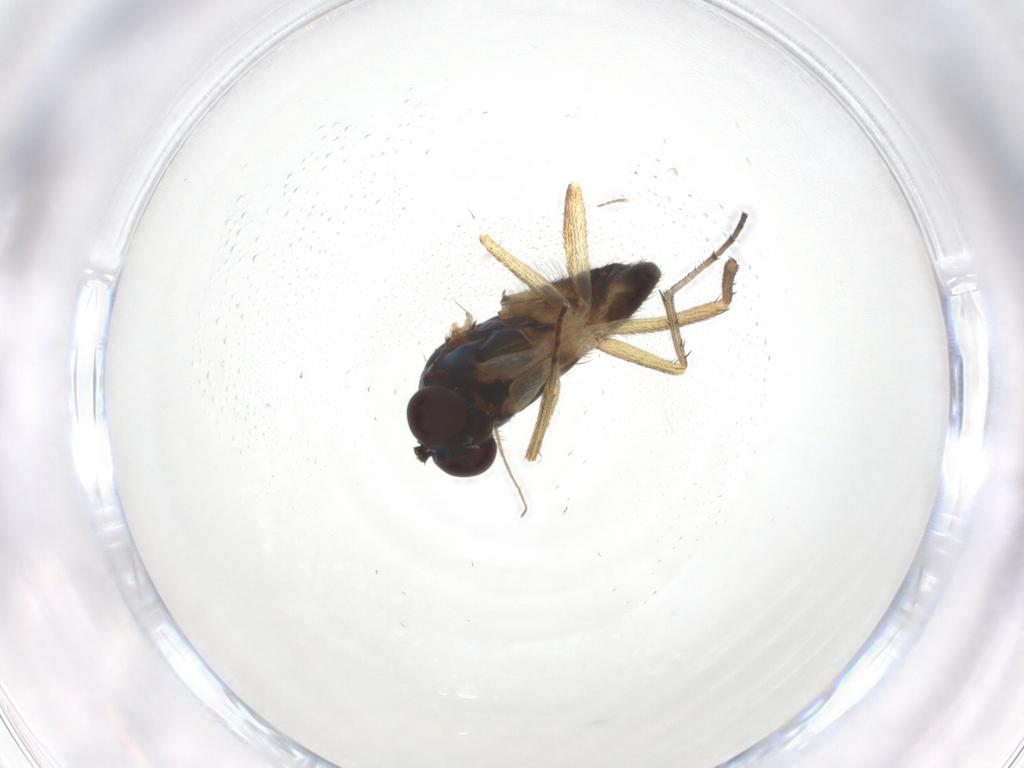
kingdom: Animalia
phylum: Arthropoda
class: Insecta
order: Diptera
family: Dolichopodidae
